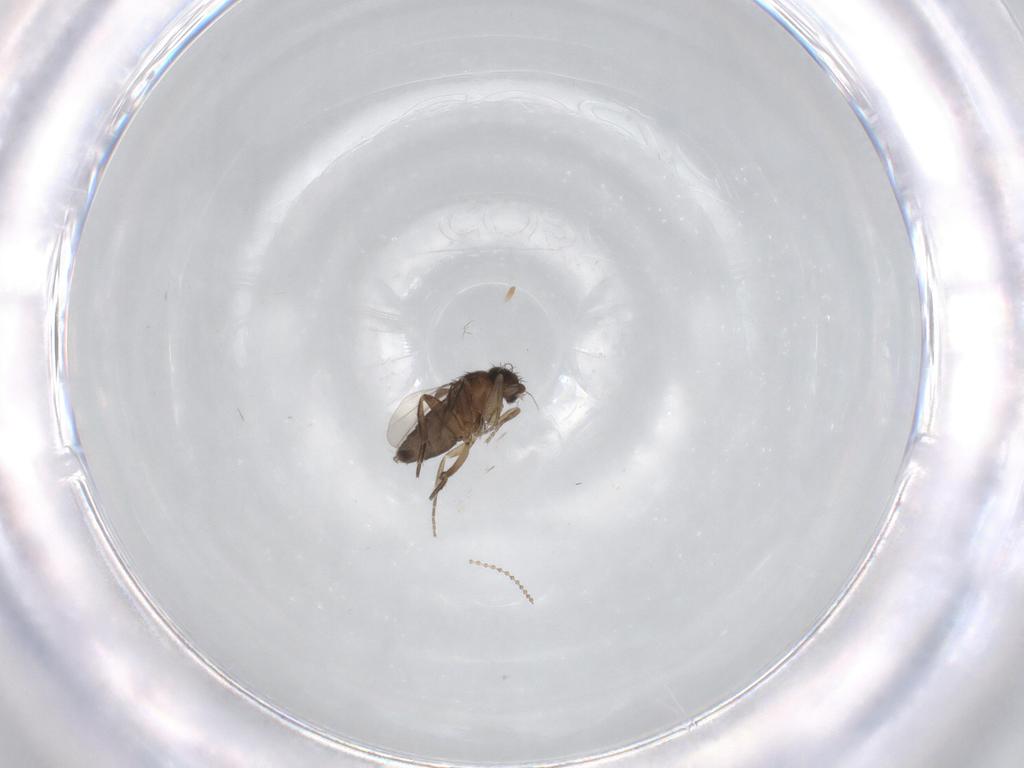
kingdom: Animalia
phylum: Arthropoda
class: Insecta
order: Diptera
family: Phoridae
